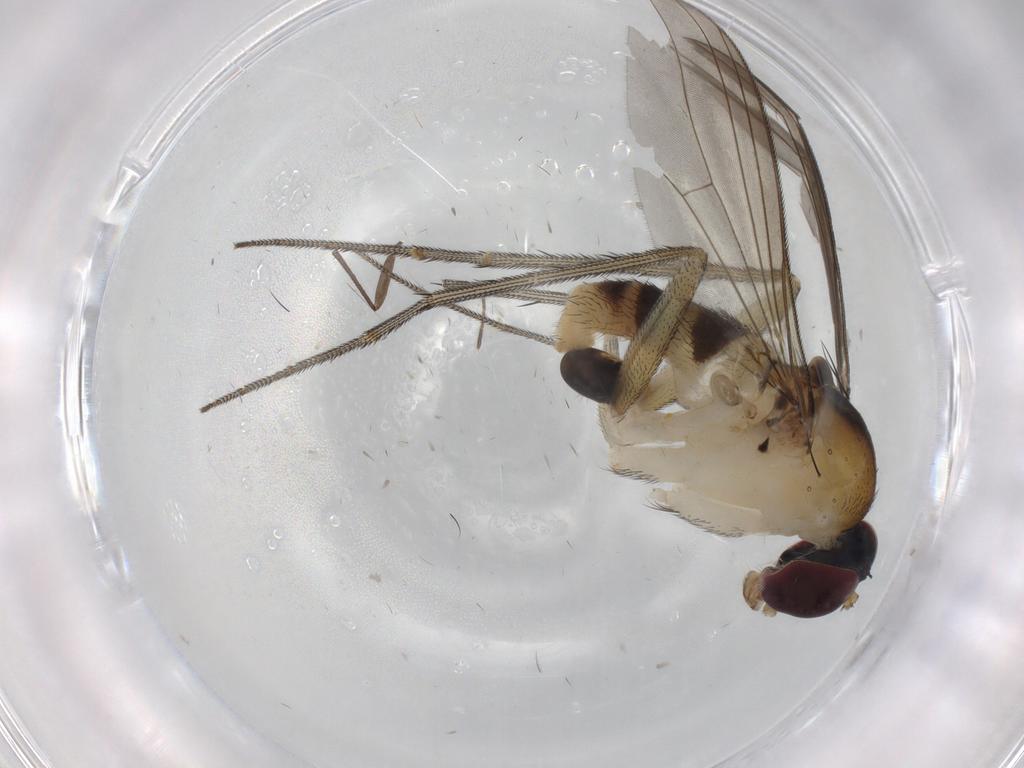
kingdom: Animalia
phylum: Arthropoda
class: Insecta
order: Diptera
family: Dolichopodidae
